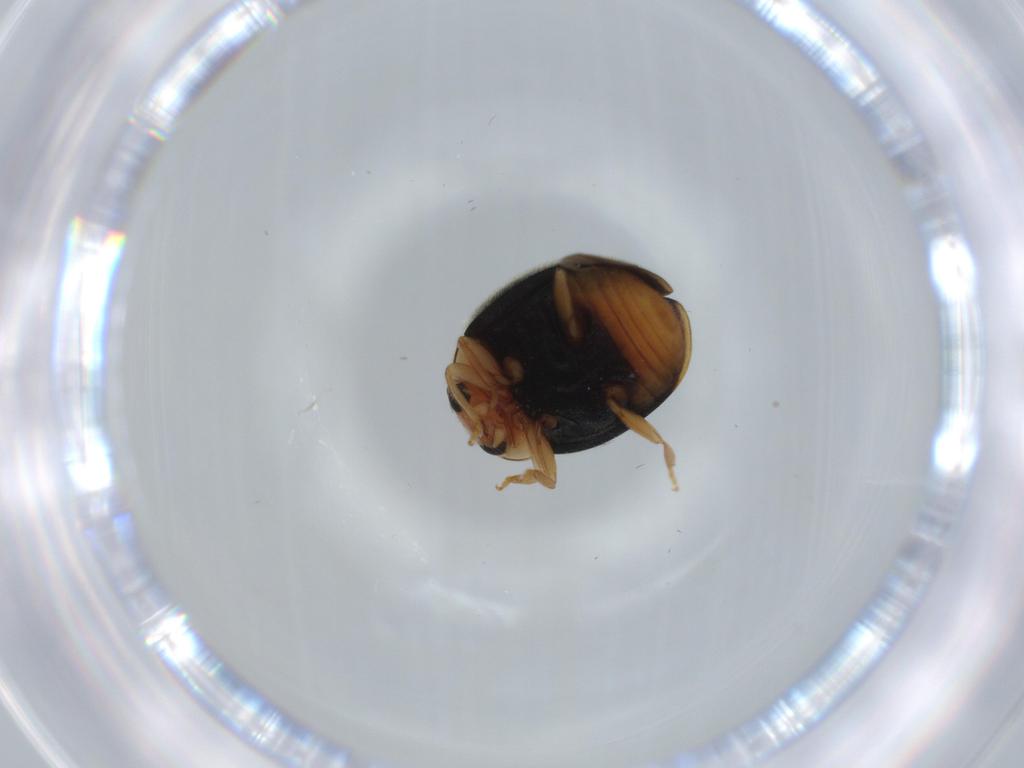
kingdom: Animalia
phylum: Arthropoda
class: Insecta
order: Coleoptera
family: Coccinellidae
